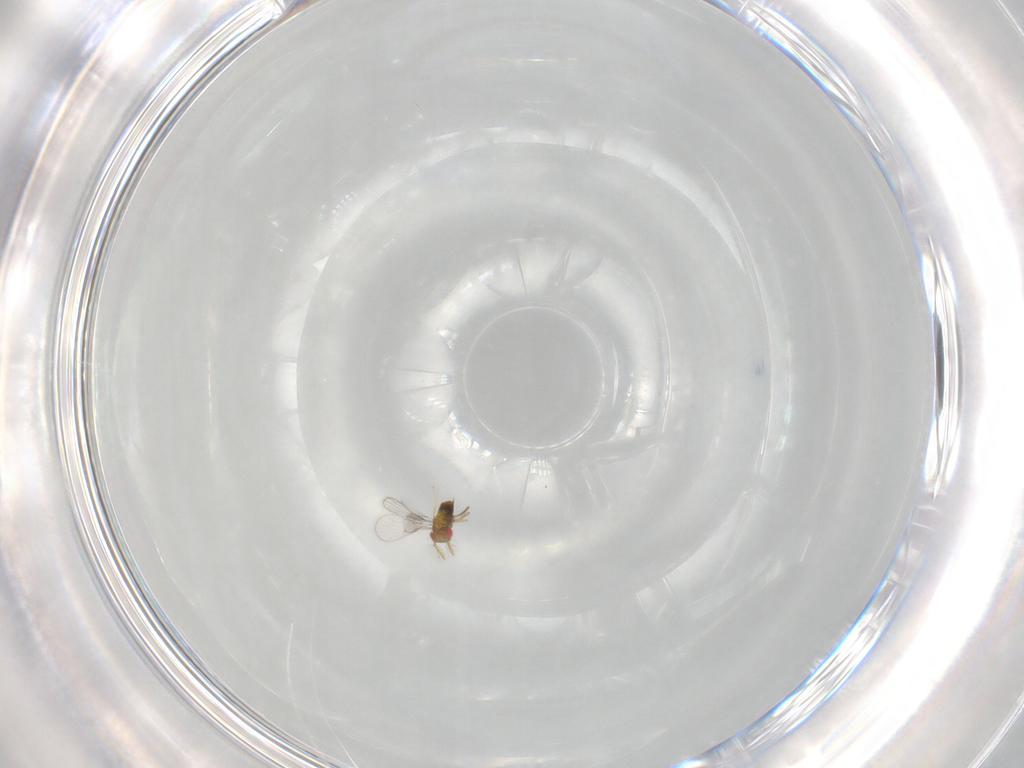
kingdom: Animalia
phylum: Arthropoda
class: Insecta
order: Hymenoptera
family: Trichogrammatidae
